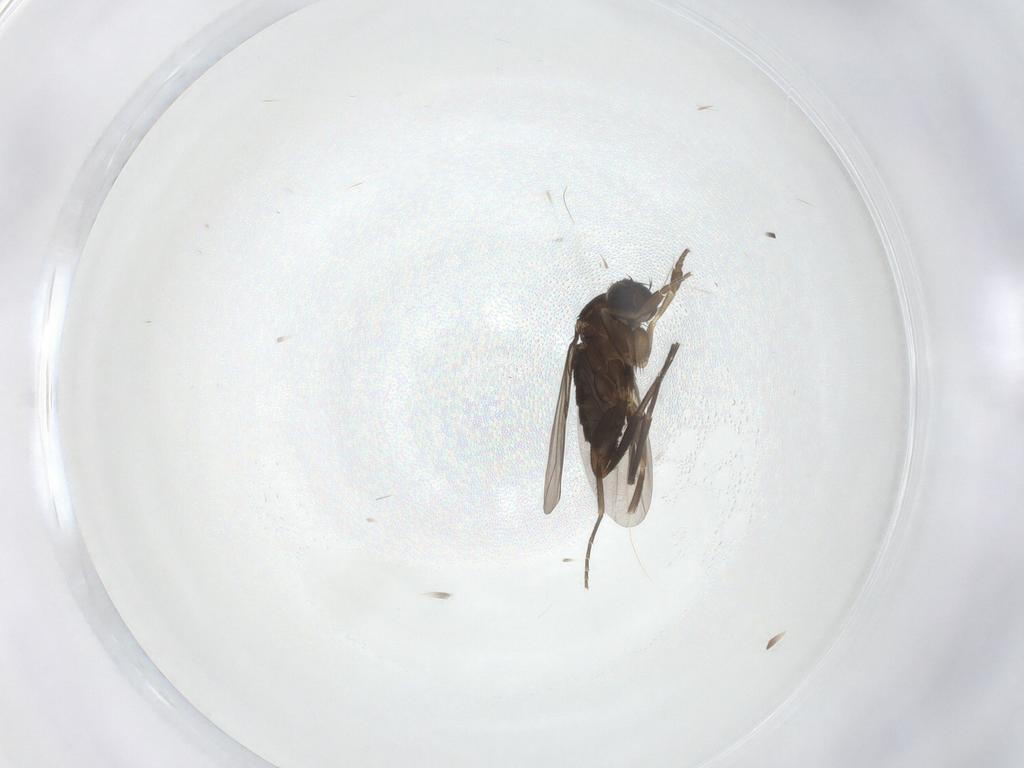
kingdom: Animalia
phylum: Arthropoda
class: Insecta
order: Diptera
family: Phoridae
